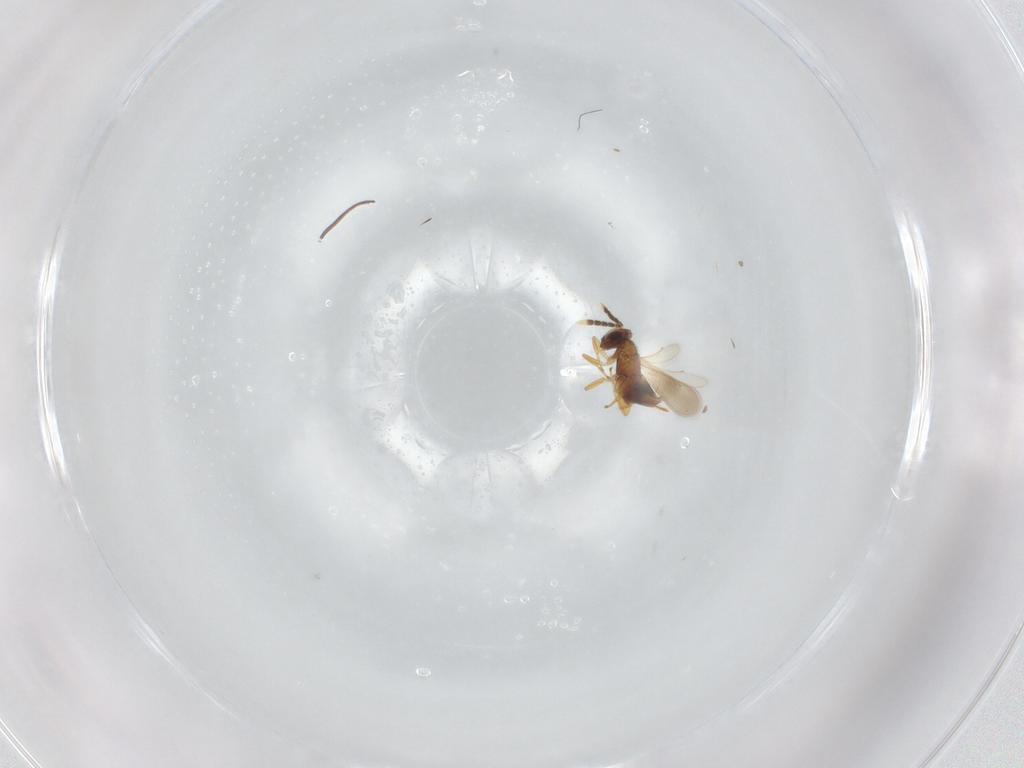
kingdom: Animalia
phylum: Arthropoda
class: Insecta
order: Hymenoptera
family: Aphelinidae
